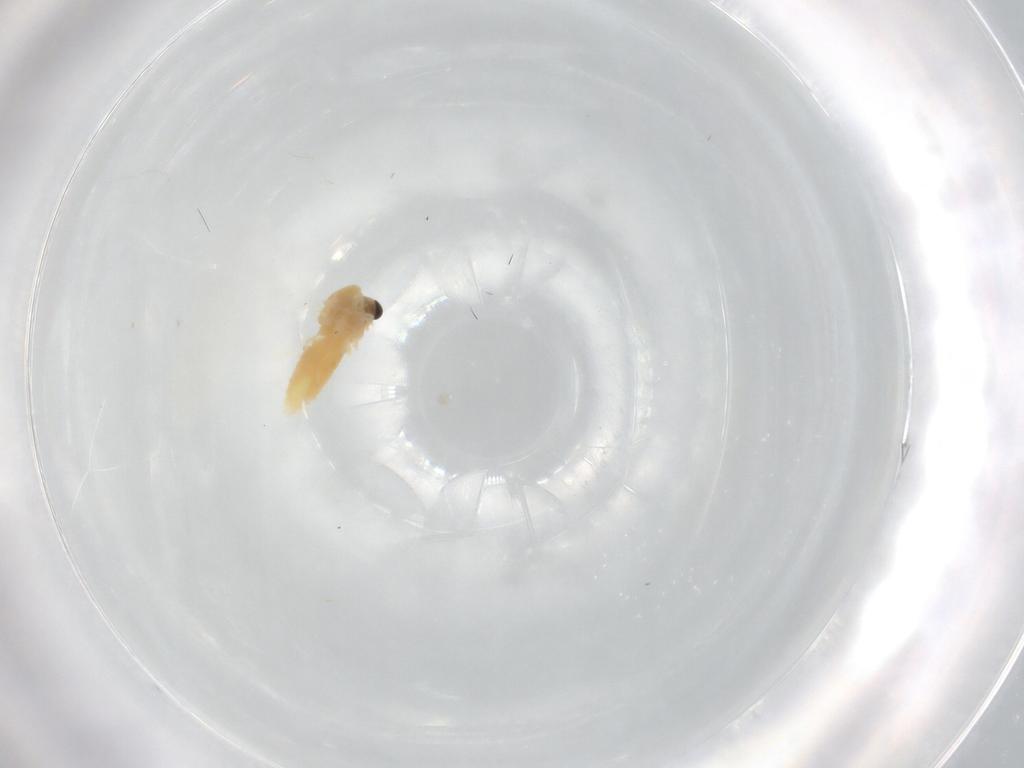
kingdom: Animalia
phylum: Arthropoda
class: Insecta
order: Diptera
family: Chironomidae
